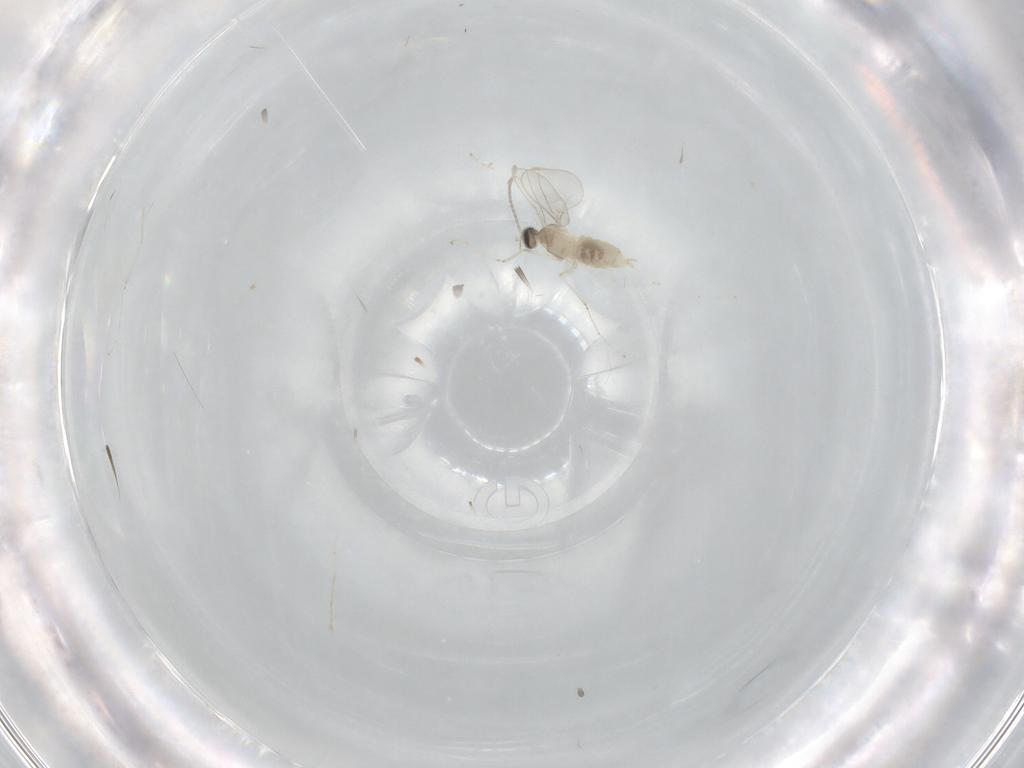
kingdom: Animalia
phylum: Arthropoda
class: Insecta
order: Diptera
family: Cecidomyiidae
